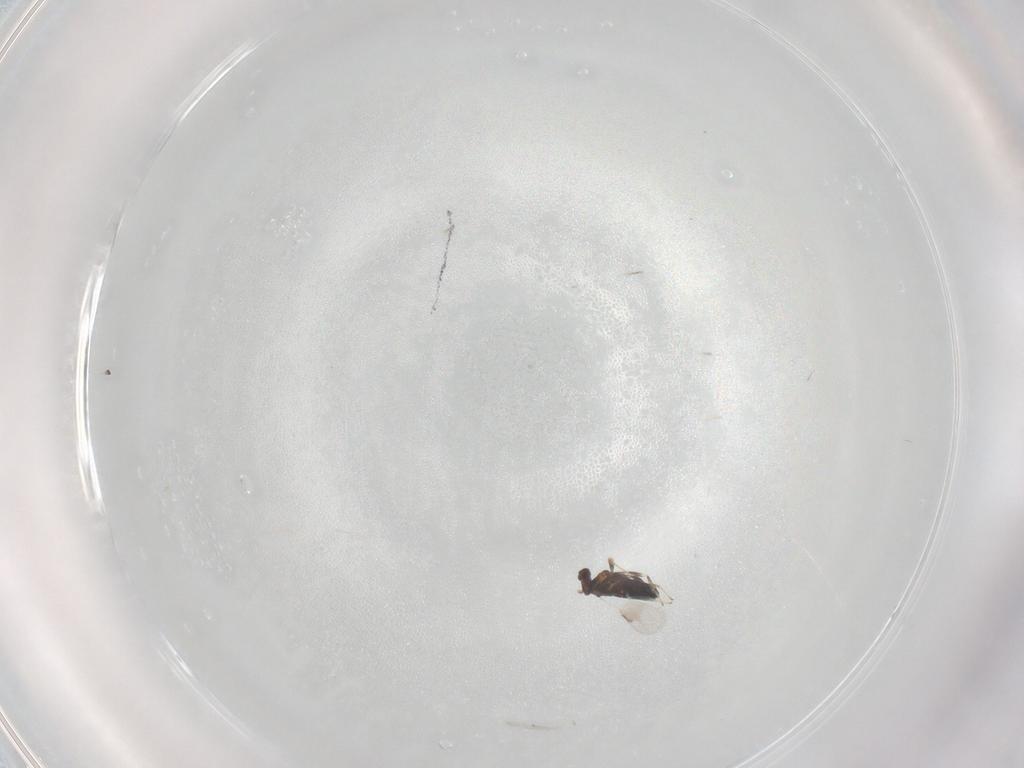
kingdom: Animalia
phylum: Arthropoda
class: Insecta
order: Hymenoptera
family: Aphelinidae
